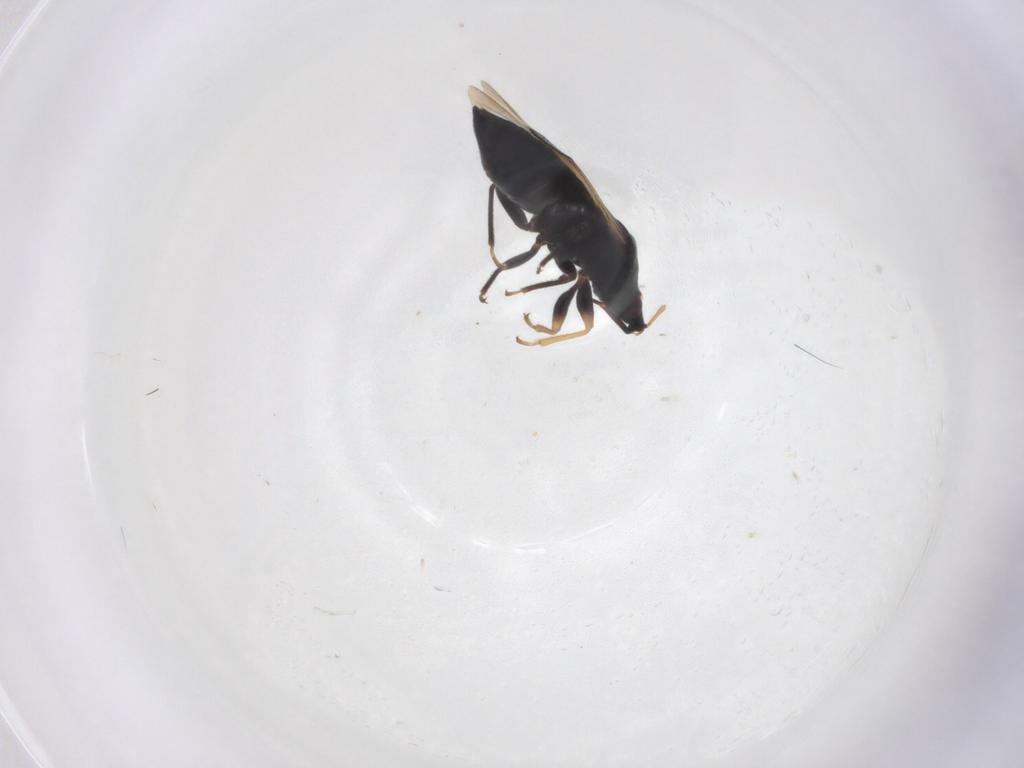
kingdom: Animalia
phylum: Arthropoda
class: Insecta
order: Hemiptera
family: Anthocoridae
